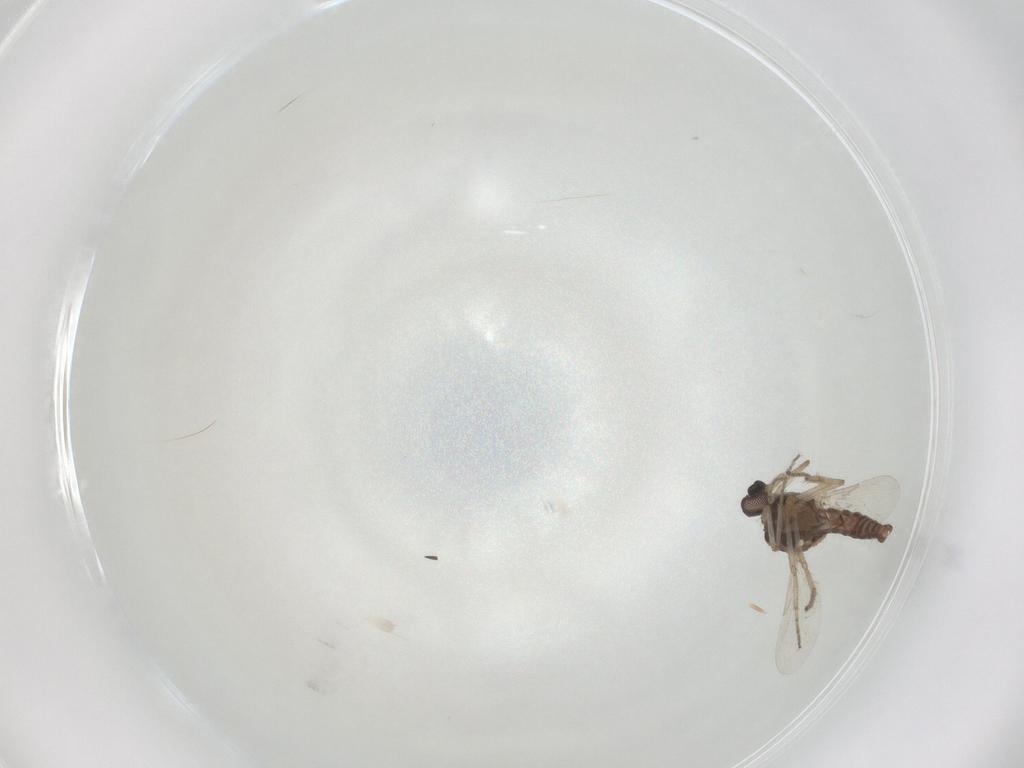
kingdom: Animalia
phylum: Arthropoda
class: Insecta
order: Diptera
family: Ceratopogonidae
